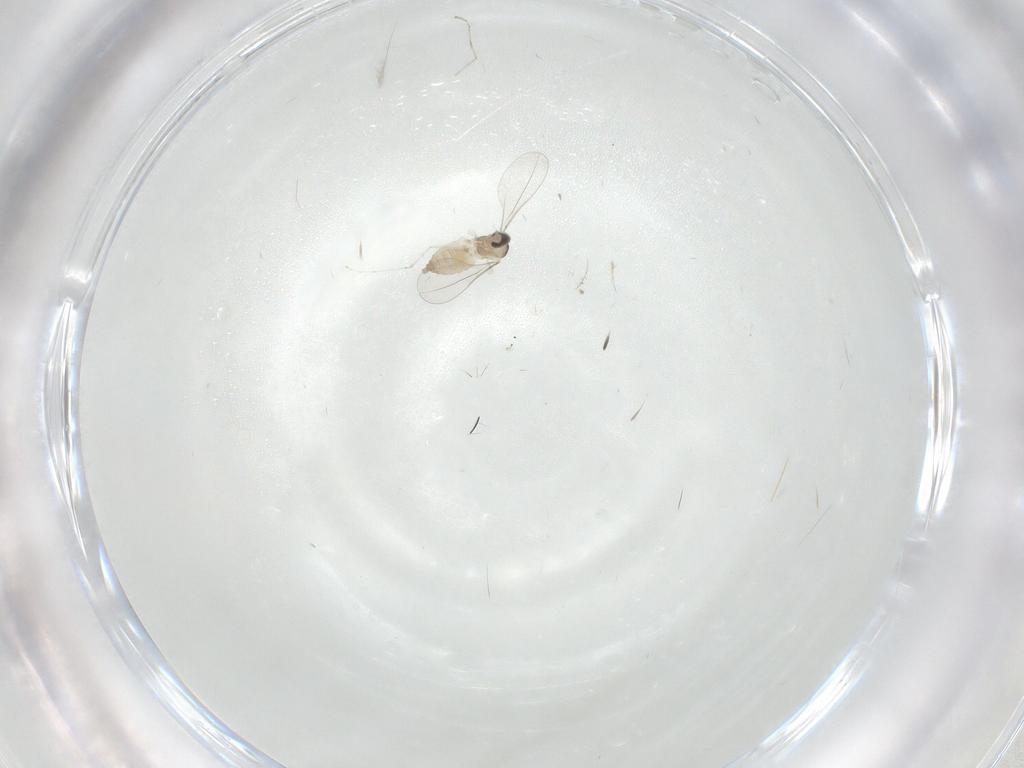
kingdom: Animalia
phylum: Arthropoda
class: Insecta
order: Diptera
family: Cecidomyiidae
